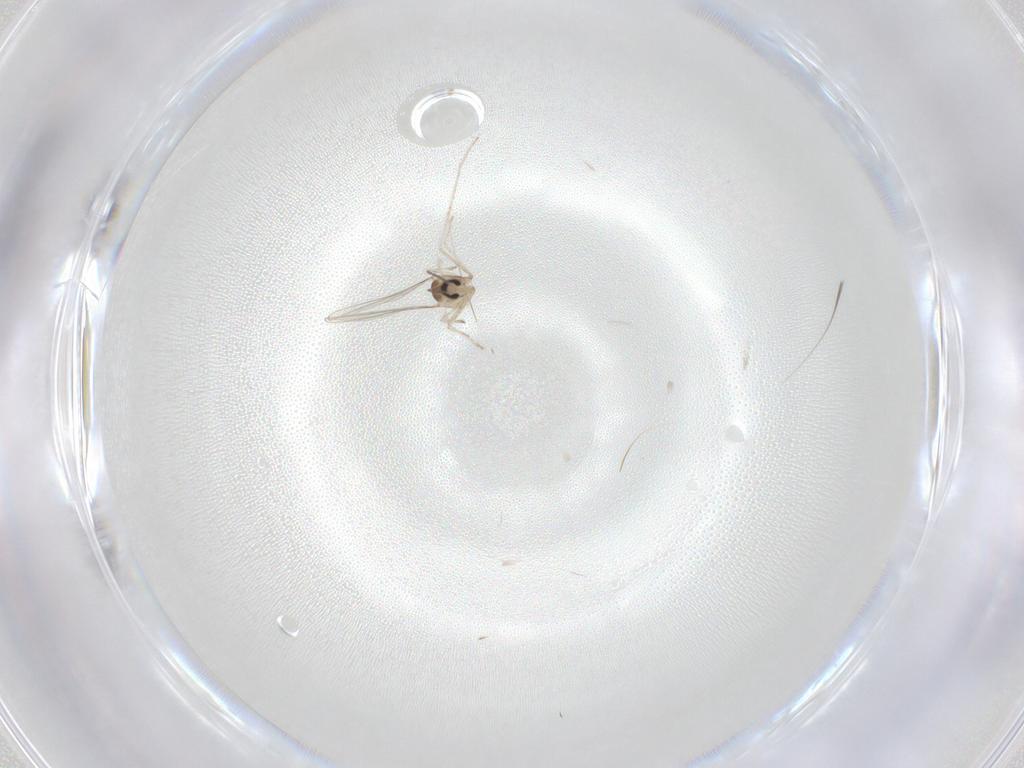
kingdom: Animalia
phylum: Arthropoda
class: Insecta
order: Diptera
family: Cecidomyiidae
